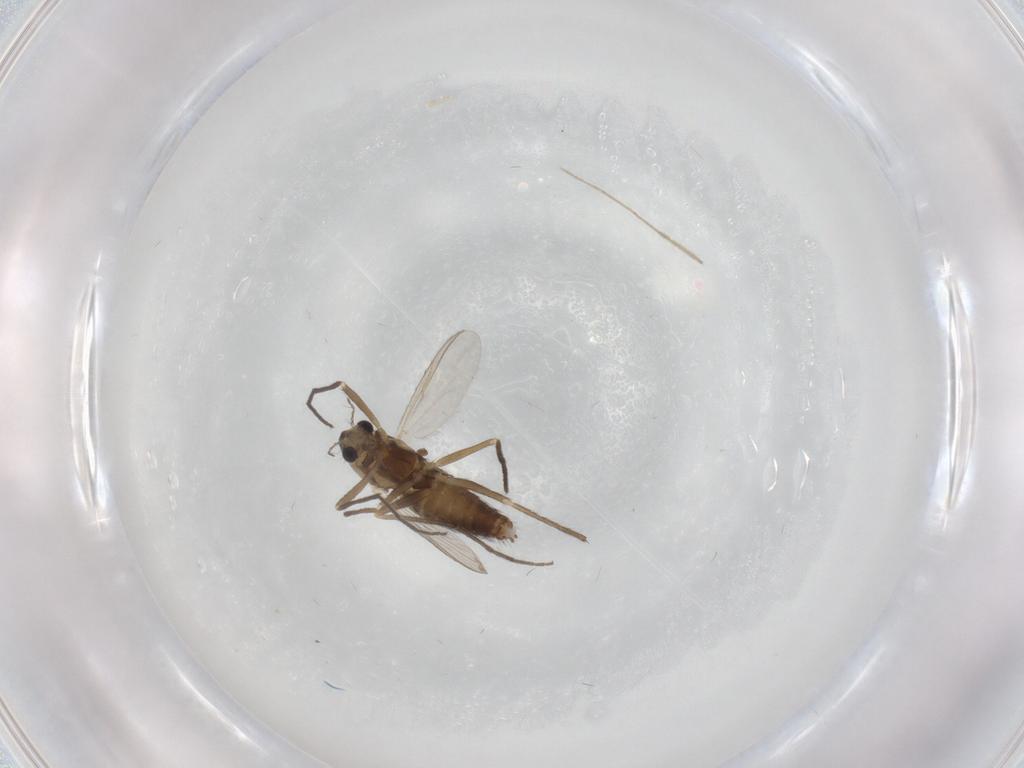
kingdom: Animalia
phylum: Arthropoda
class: Insecta
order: Diptera
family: Chironomidae
